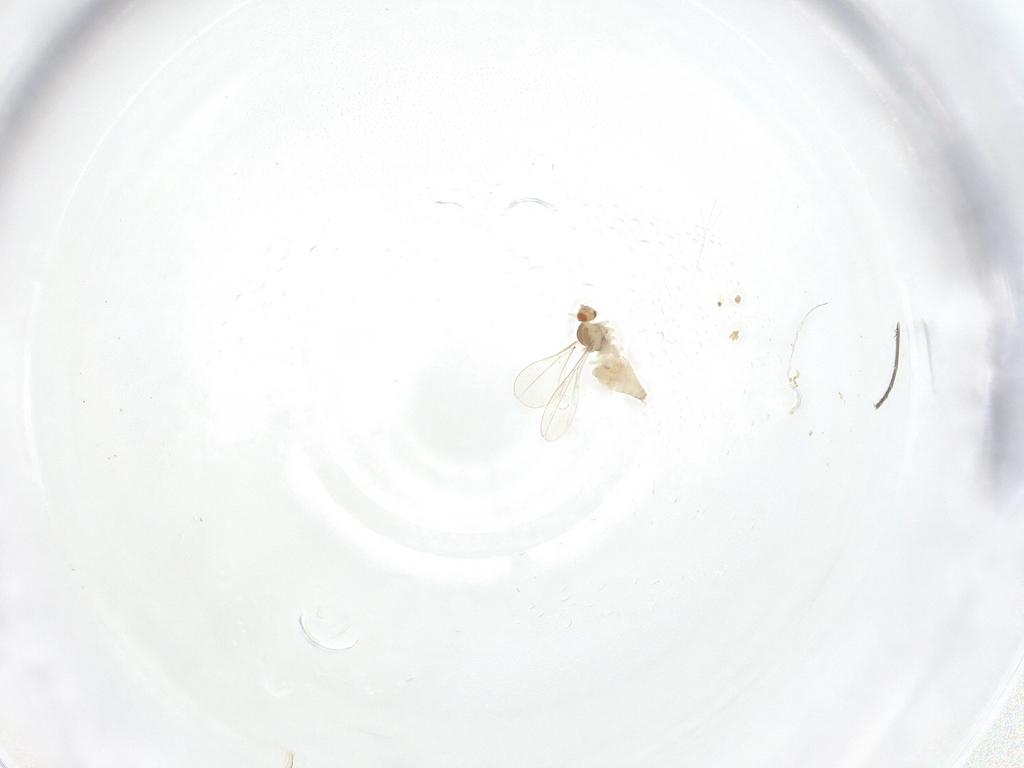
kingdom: Animalia
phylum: Arthropoda
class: Insecta
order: Diptera
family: Cecidomyiidae
